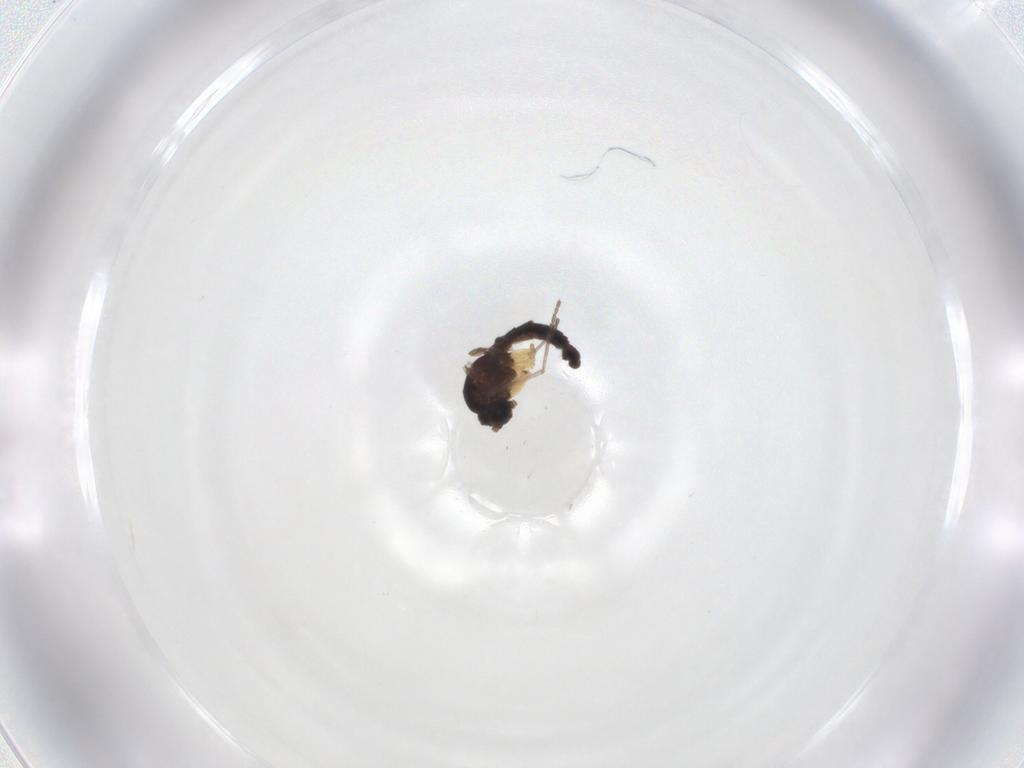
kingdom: Animalia
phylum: Arthropoda
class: Insecta
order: Diptera
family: Sciaridae
